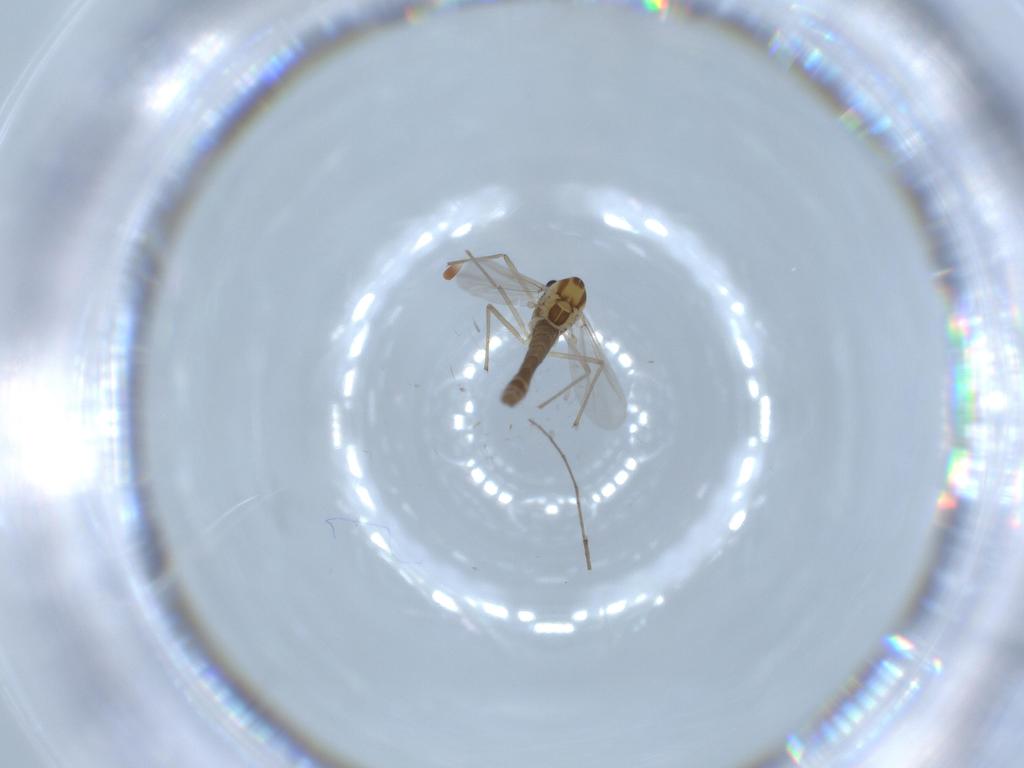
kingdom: Animalia
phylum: Arthropoda
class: Insecta
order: Diptera
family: Chironomidae
